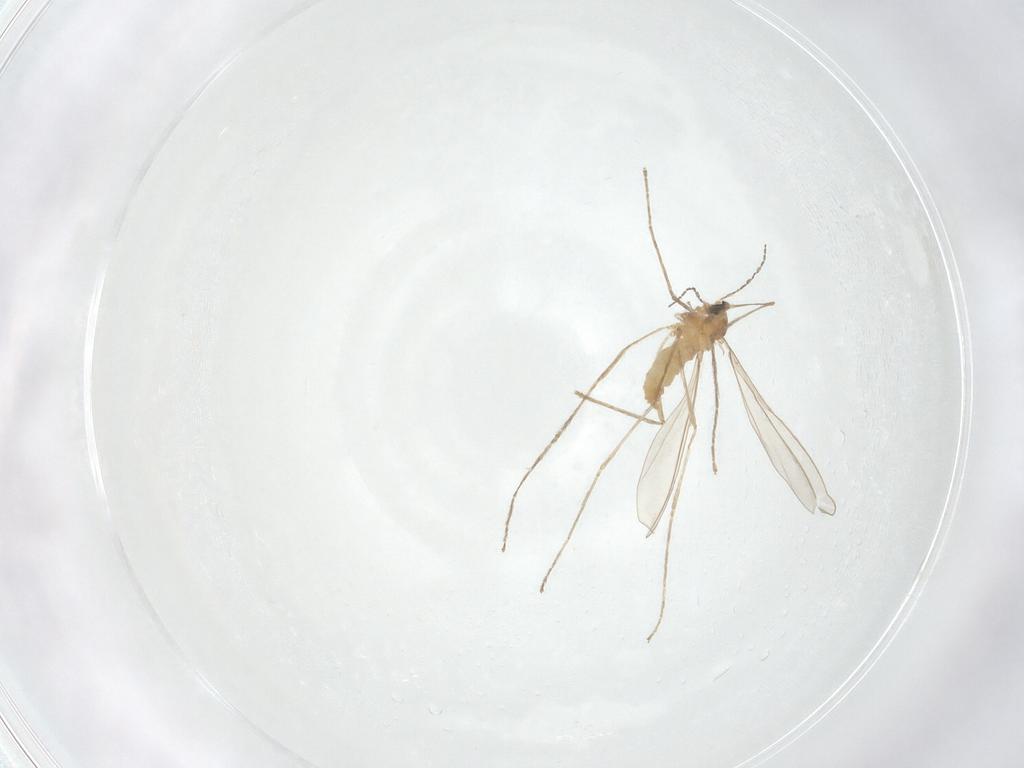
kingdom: Animalia
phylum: Arthropoda
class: Insecta
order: Diptera
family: Cecidomyiidae
